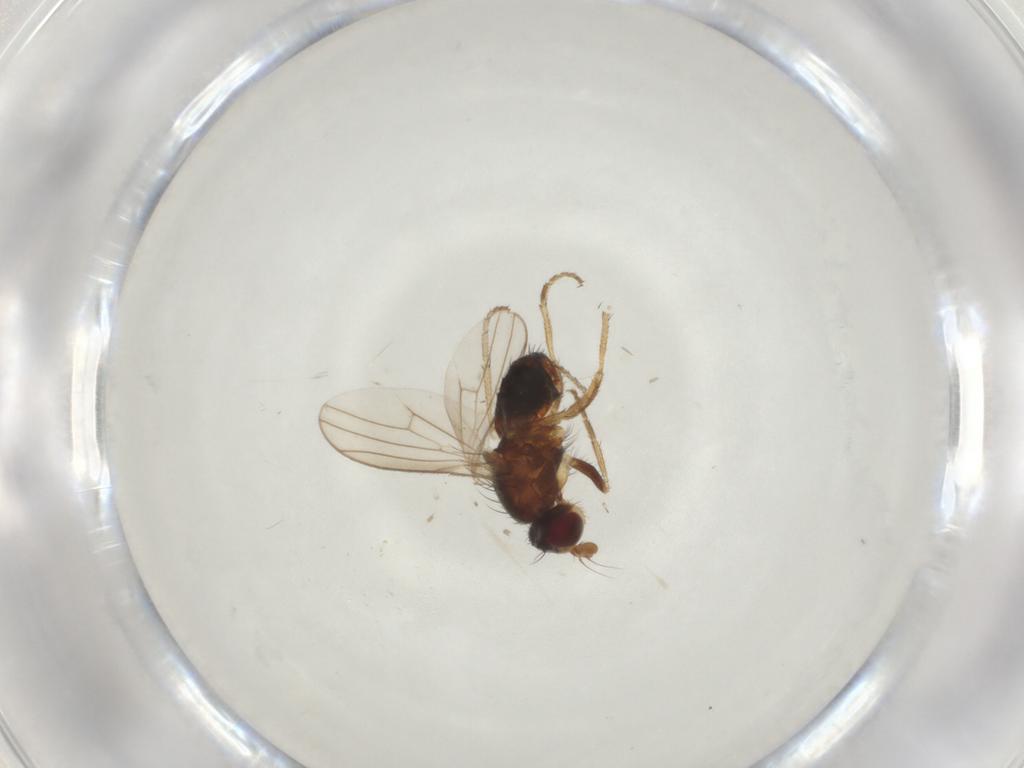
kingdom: Animalia
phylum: Arthropoda
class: Insecta
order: Diptera
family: Heleomyzidae
